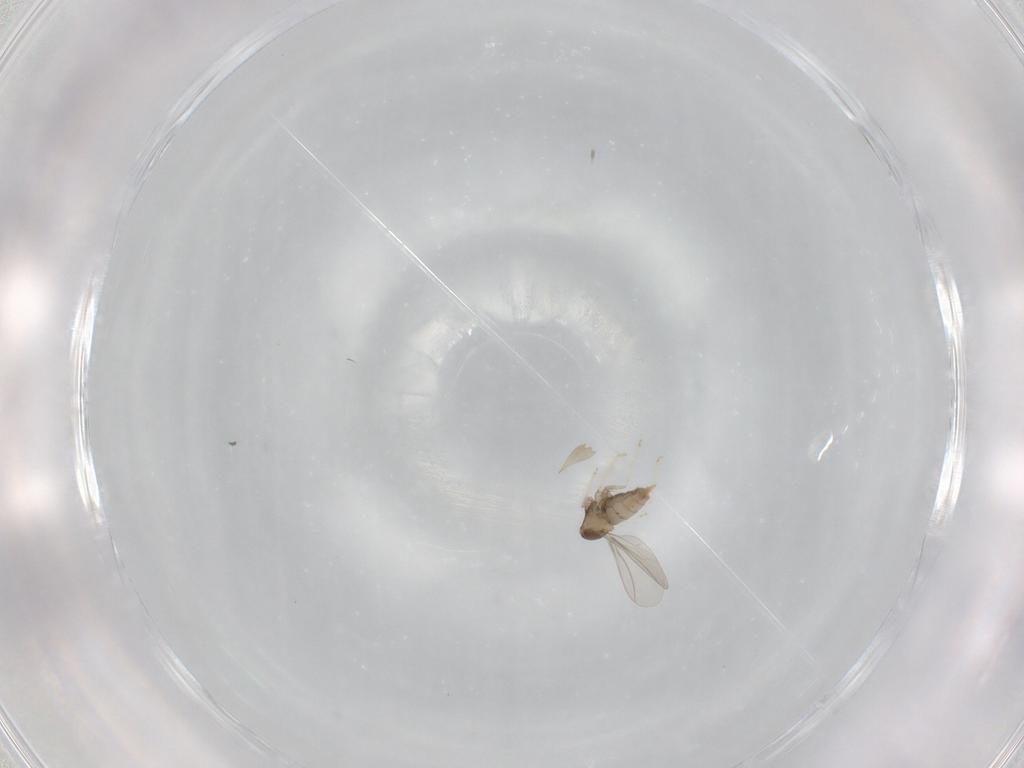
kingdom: Animalia
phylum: Arthropoda
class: Insecta
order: Diptera
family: Cecidomyiidae
